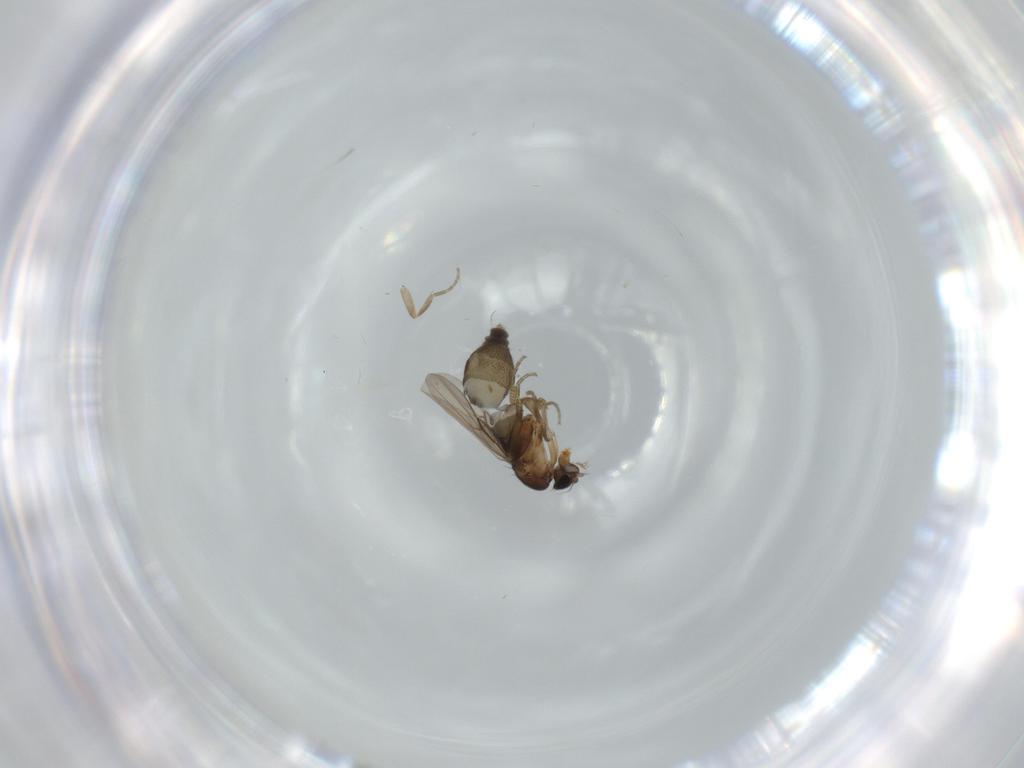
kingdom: Animalia
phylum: Arthropoda
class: Insecta
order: Diptera
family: Phoridae
